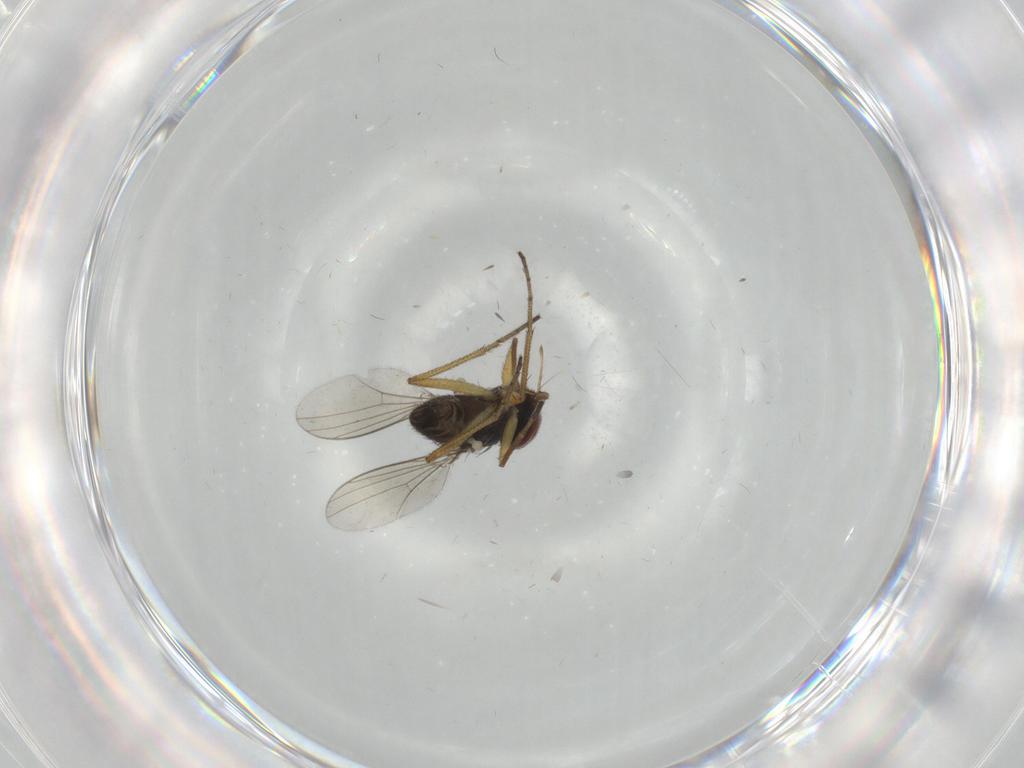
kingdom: Animalia
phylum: Arthropoda
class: Insecta
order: Diptera
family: Dolichopodidae
